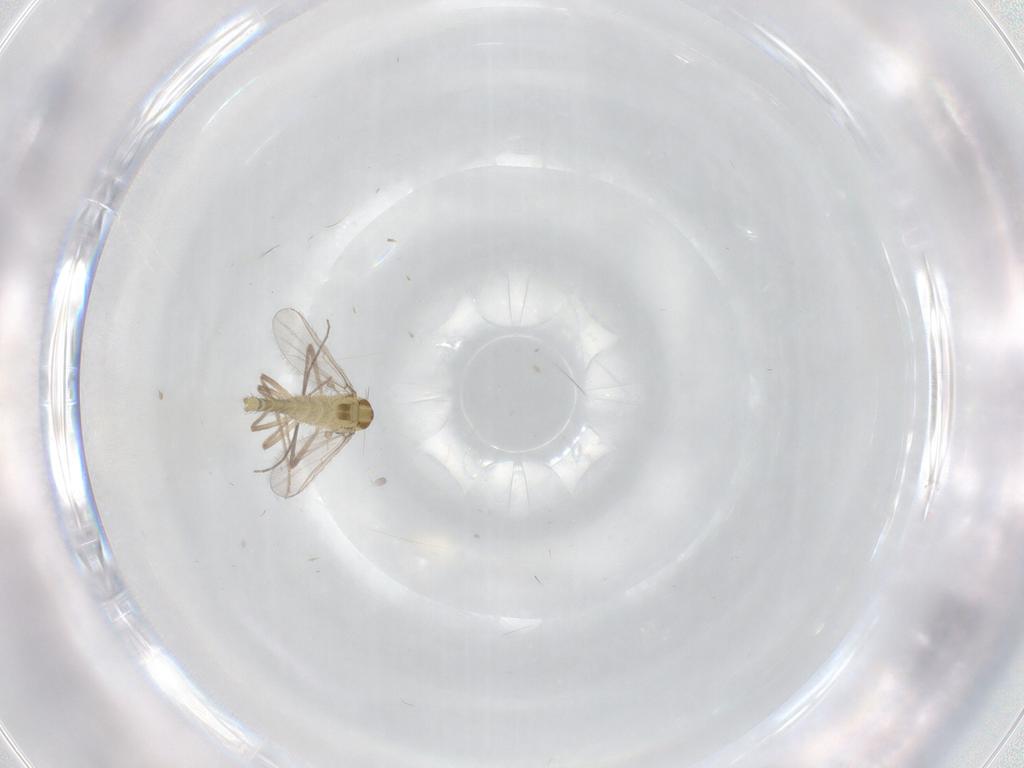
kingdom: Animalia
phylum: Arthropoda
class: Insecta
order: Diptera
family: Chironomidae
